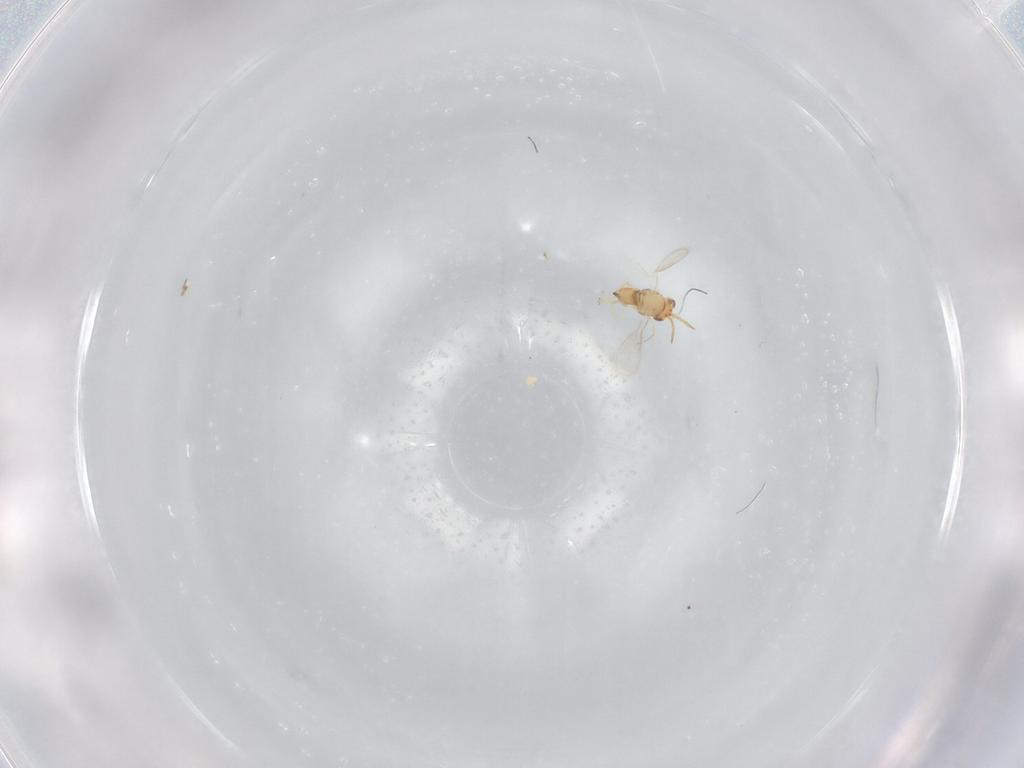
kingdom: Animalia
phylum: Arthropoda
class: Insecta
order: Hymenoptera
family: Aphelinidae
